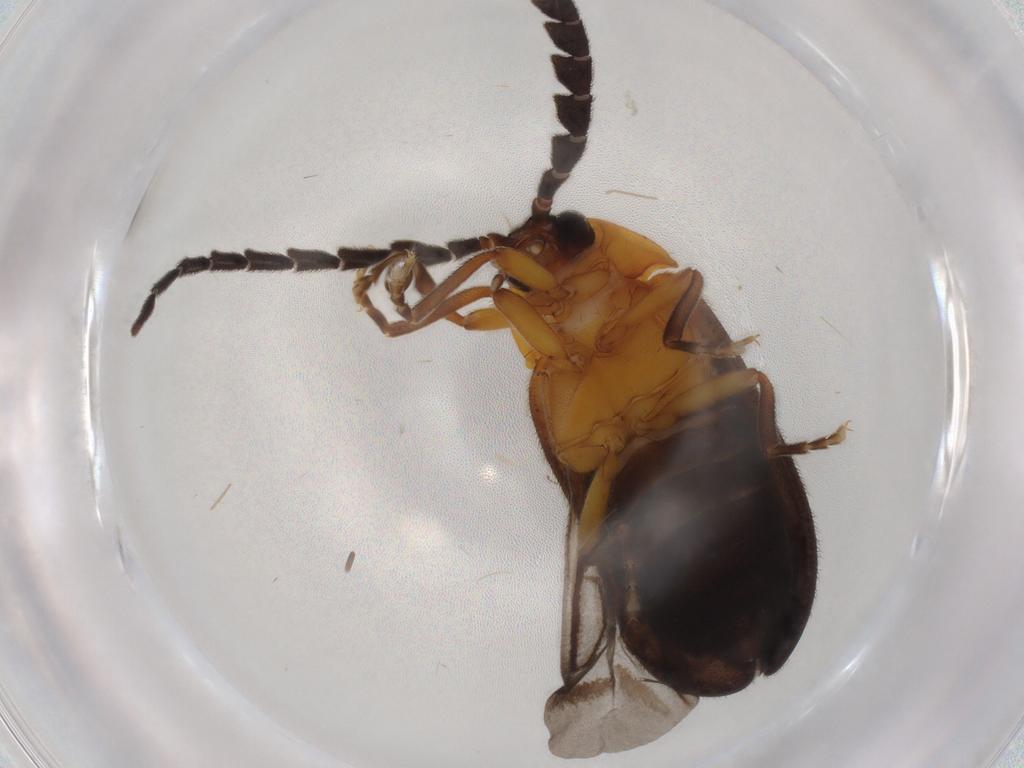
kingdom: Animalia
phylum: Arthropoda
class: Insecta
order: Coleoptera
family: Lampyridae
